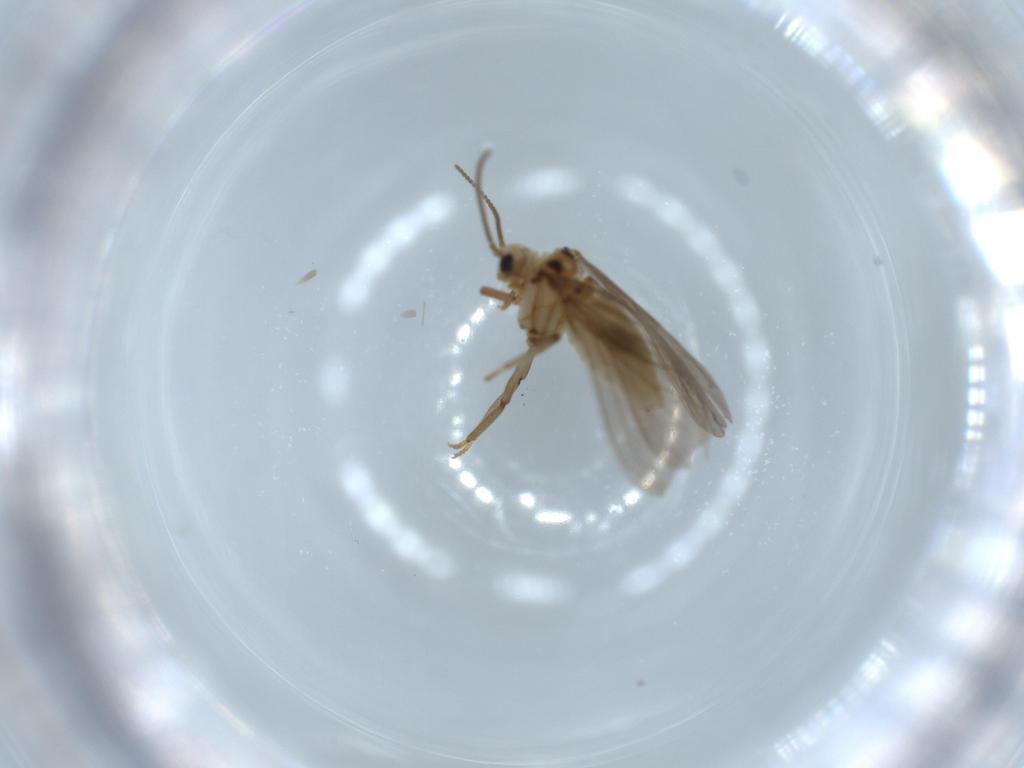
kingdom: Animalia
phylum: Arthropoda
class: Insecta
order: Neuroptera
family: Coniopterygidae
